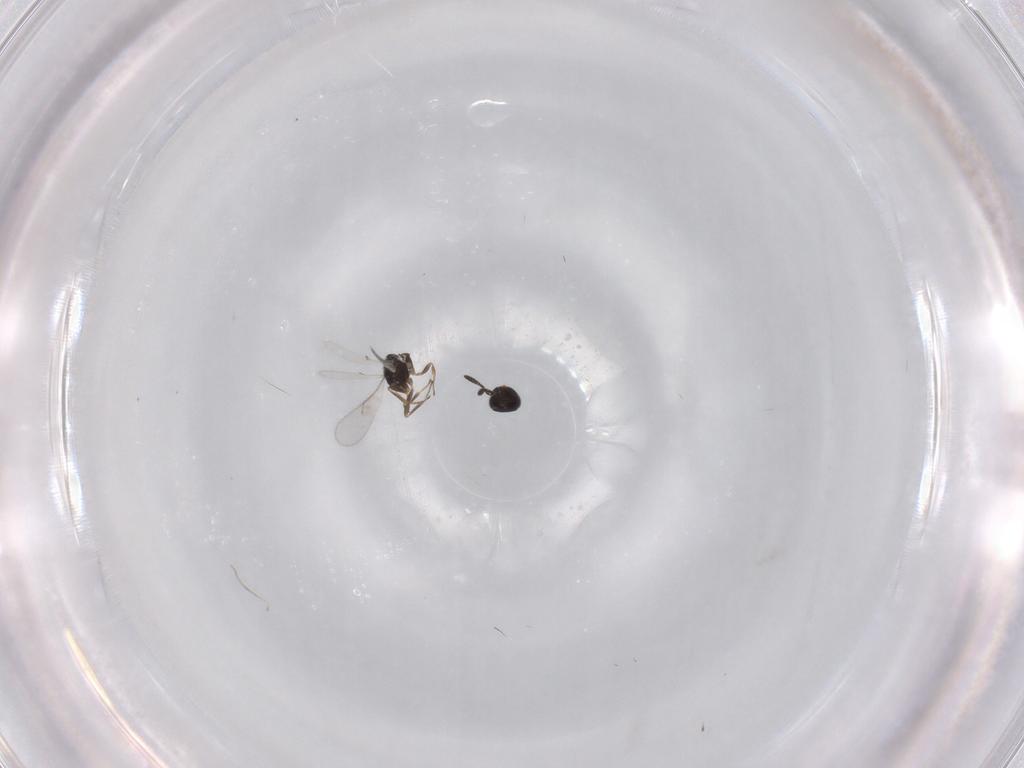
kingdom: Animalia
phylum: Arthropoda
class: Insecta
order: Hymenoptera
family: Scelionidae
